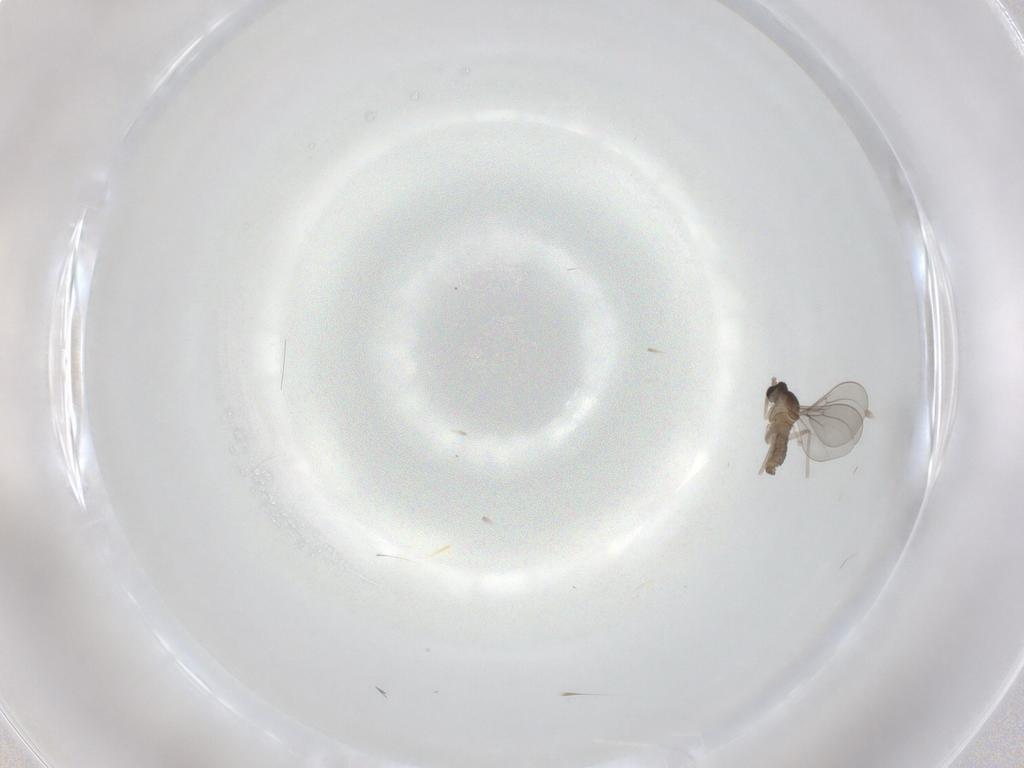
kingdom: Animalia
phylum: Arthropoda
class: Insecta
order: Diptera
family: Cecidomyiidae
